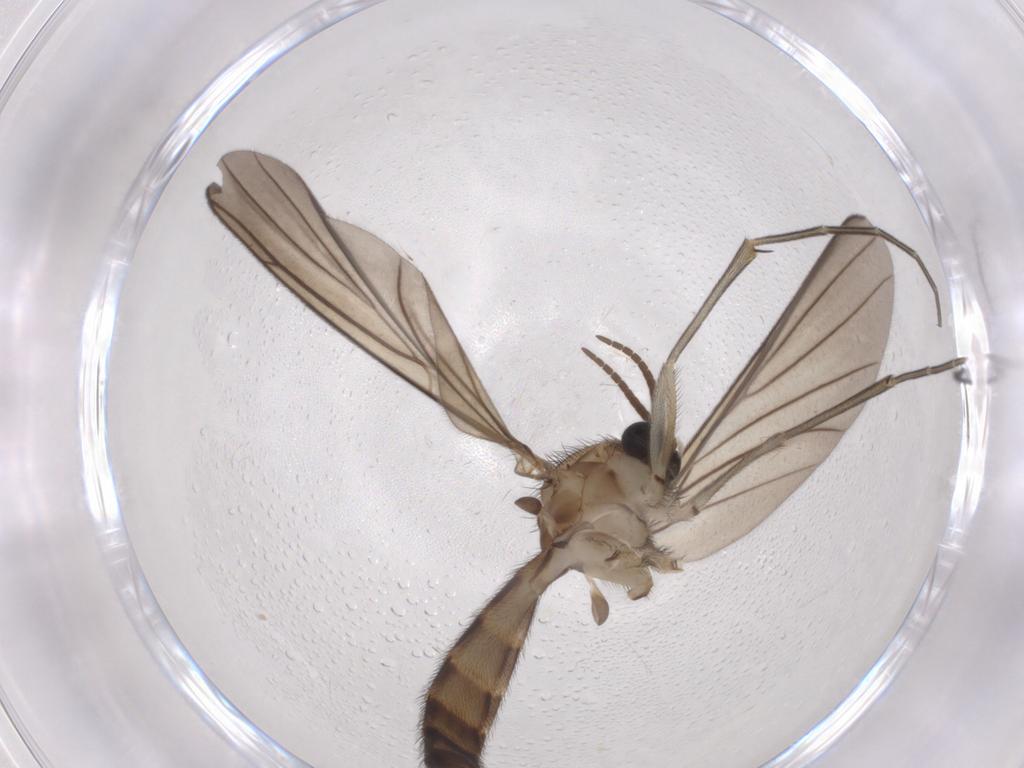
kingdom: Animalia
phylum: Arthropoda
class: Insecta
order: Diptera
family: Keroplatidae
